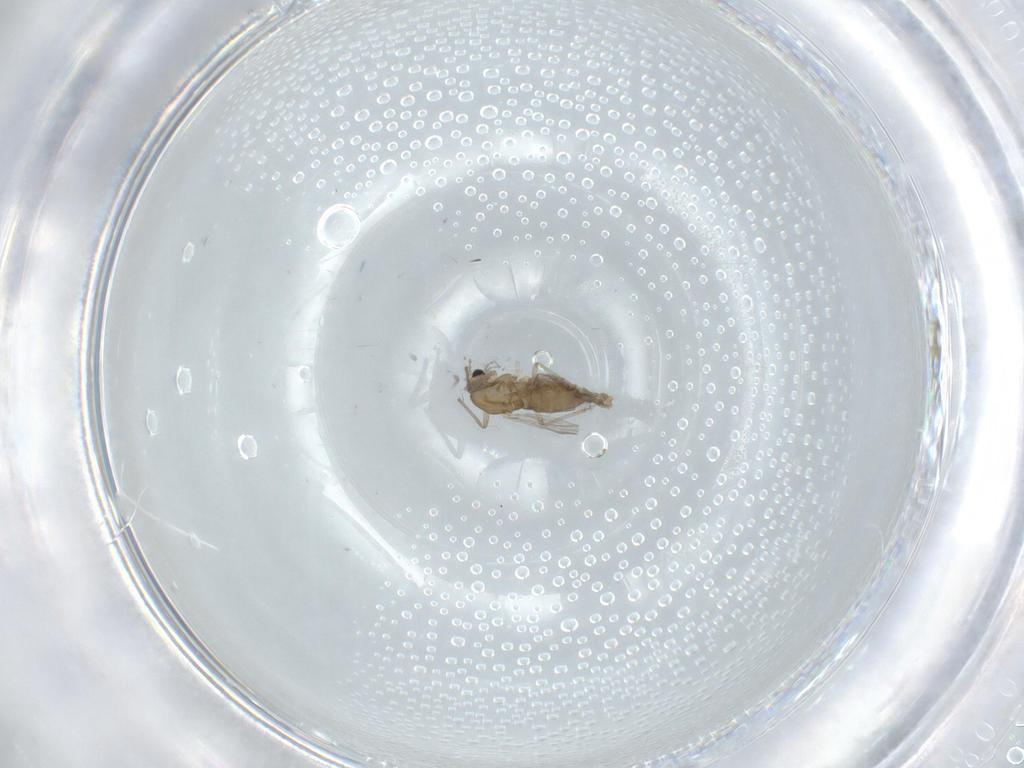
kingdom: Animalia
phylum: Arthropoda
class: Insecta
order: Diptera
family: Chironomidae
